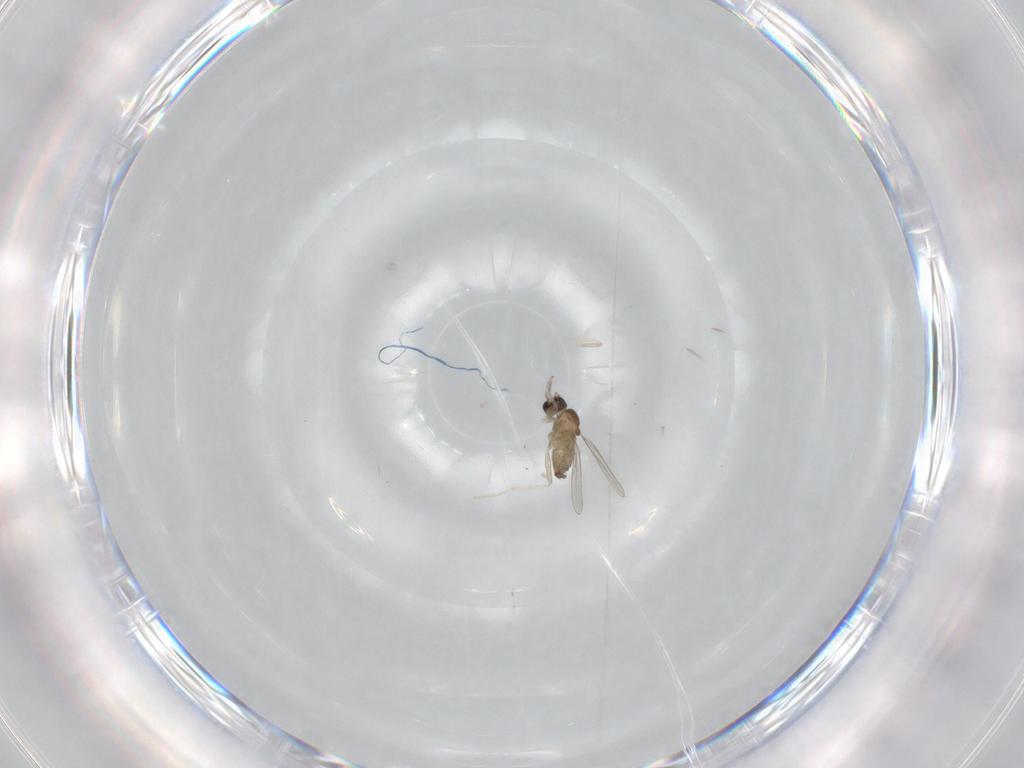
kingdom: Animalia
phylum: Arthropoda
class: Insecta
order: Diptera
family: Cecidomyiidae
